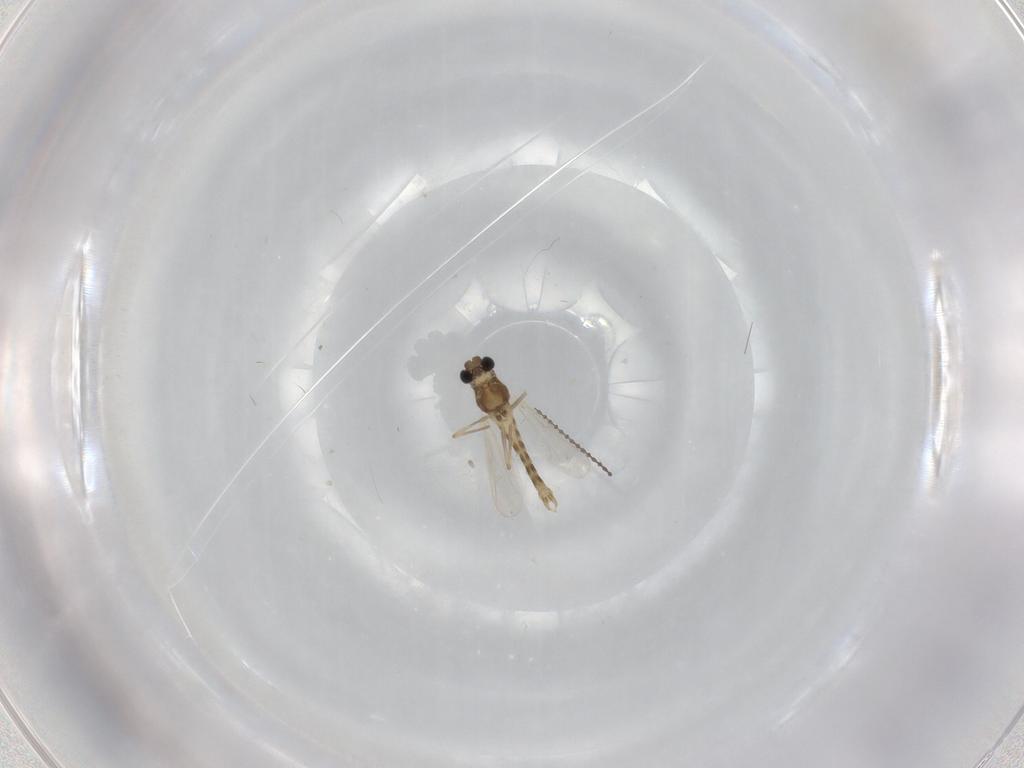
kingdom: Animalia
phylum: Arthropoda
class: Insecta
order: Diptera
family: Chironomidae
